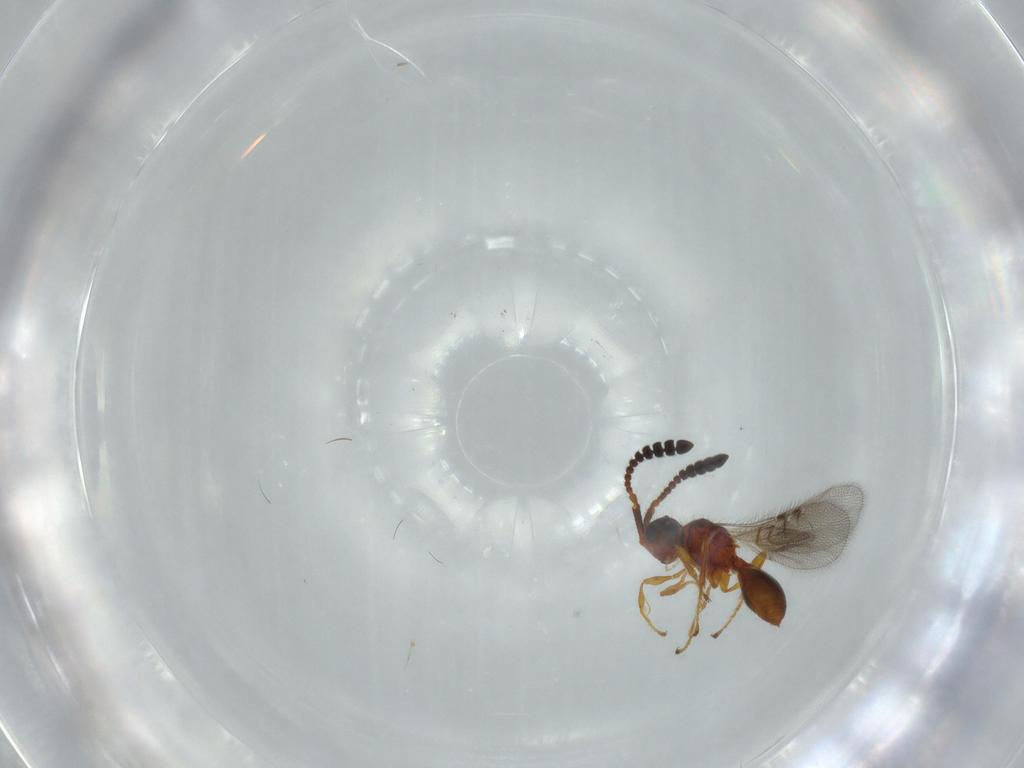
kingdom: Animalia
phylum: Arthropoda
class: Insecta
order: Hymenoptera
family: Diapriidae
